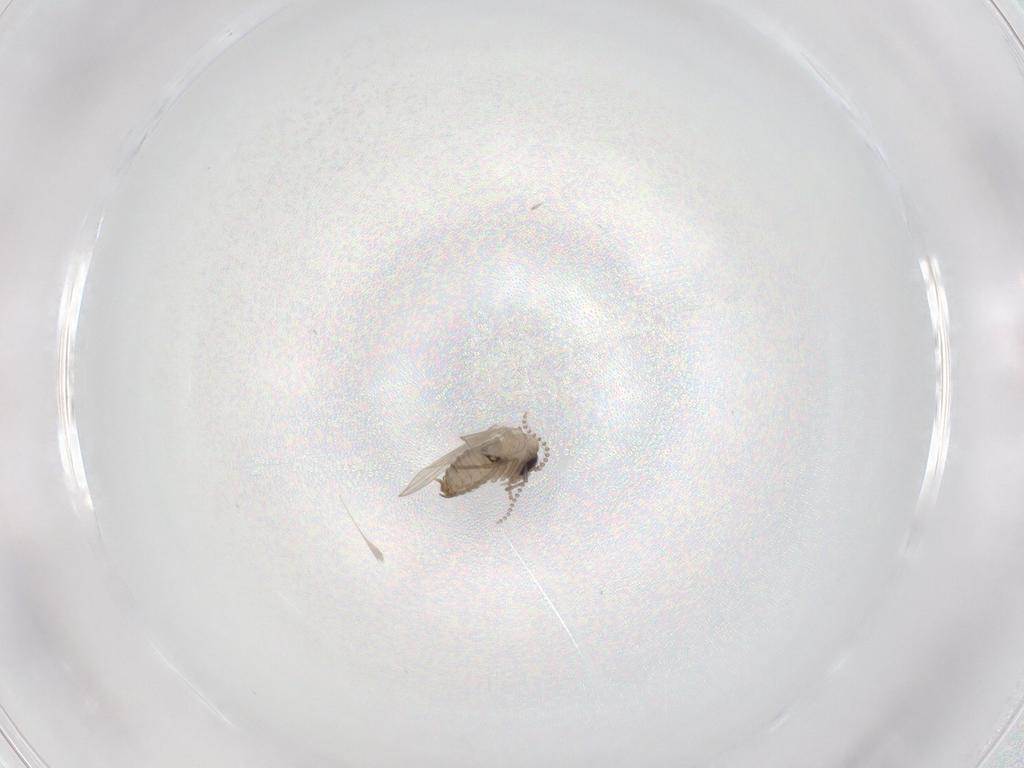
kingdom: Animalia
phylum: Arthropoda
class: Insecta
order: Diptera
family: Psychodidae
